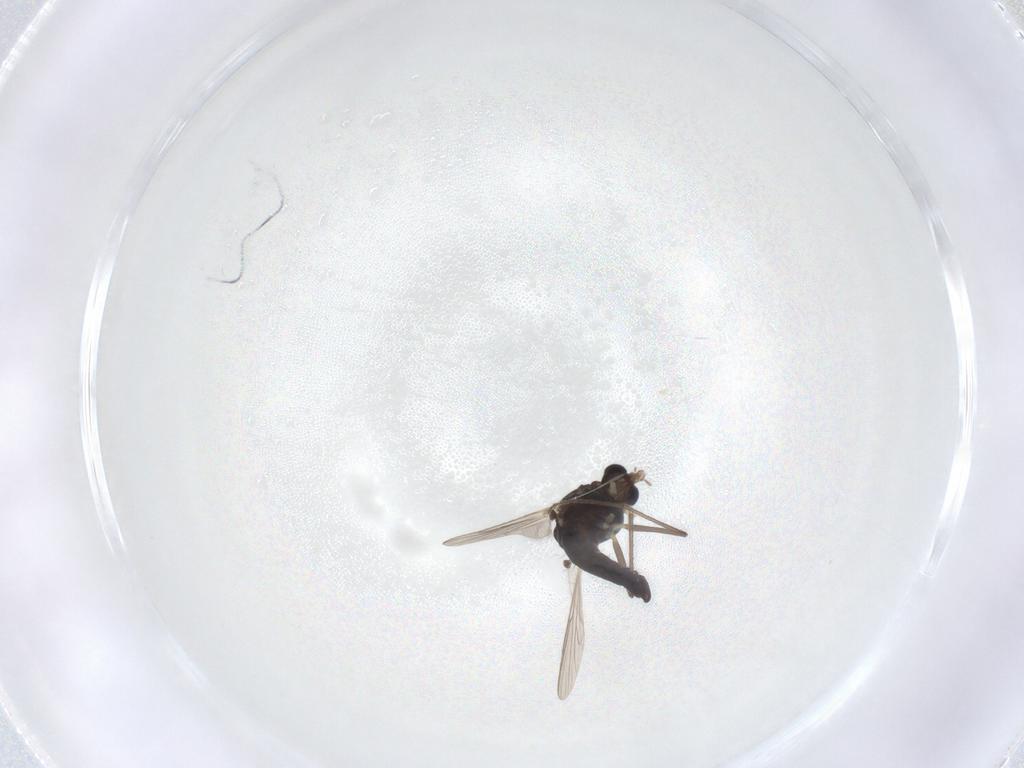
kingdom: Animalia
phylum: Arthropoda
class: Insecta
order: Diptera
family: Chironomidae
